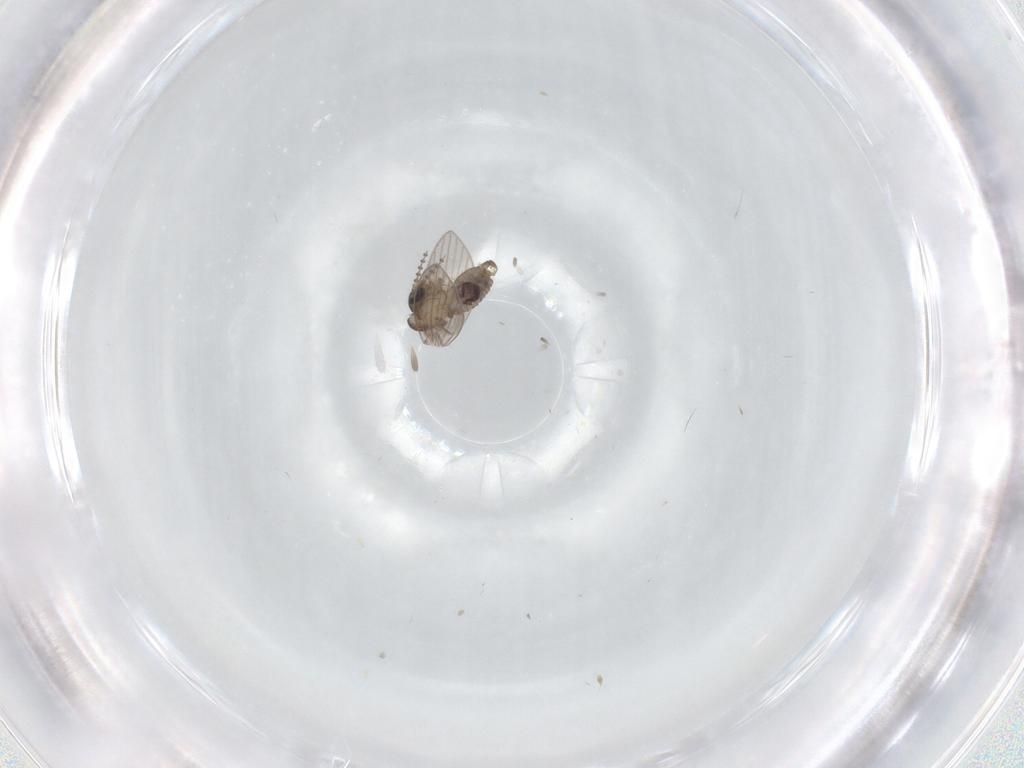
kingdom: Animalia
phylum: Arthropoda
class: Insecta
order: Diptera
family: Psychodidae
